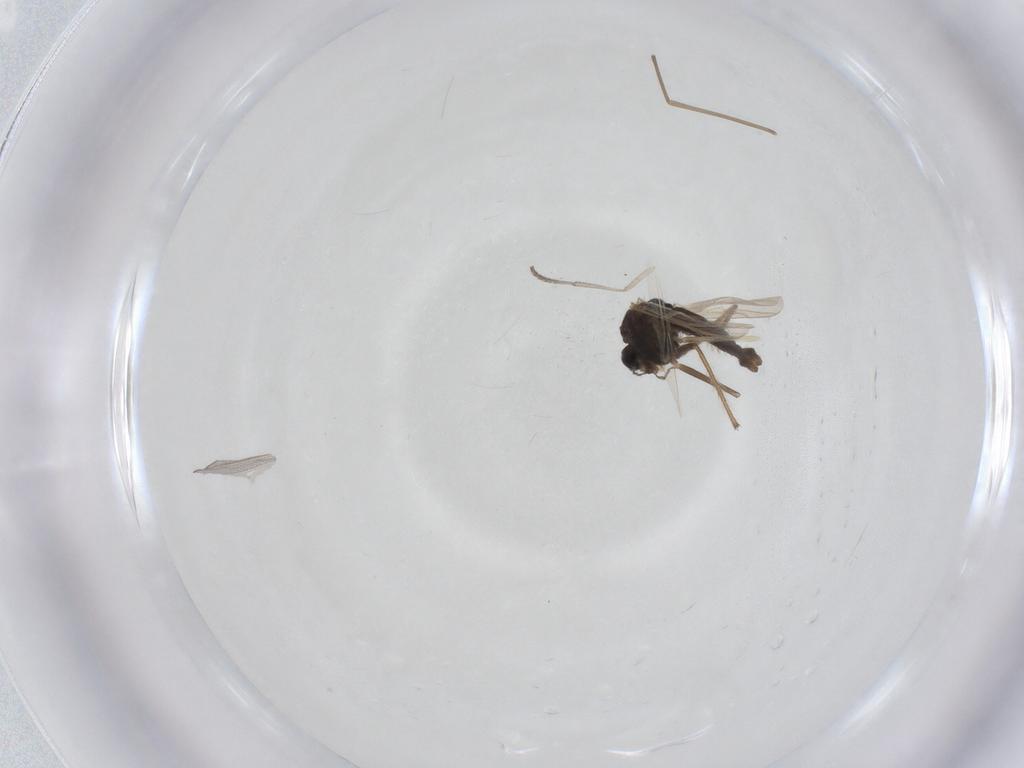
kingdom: Animalia
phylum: Arthropoda
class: Insecta
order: Diptera
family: Chironomidae
